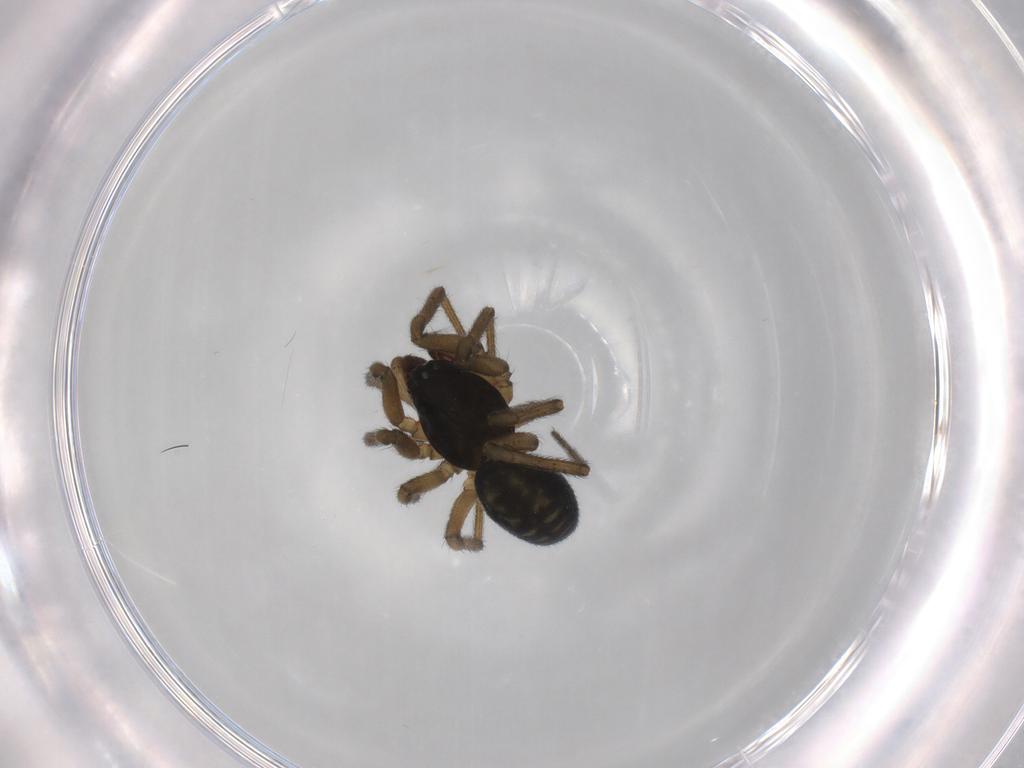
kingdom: Animalia
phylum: Arthropoda
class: Arachnida
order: Araneae
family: Linyphiidae
